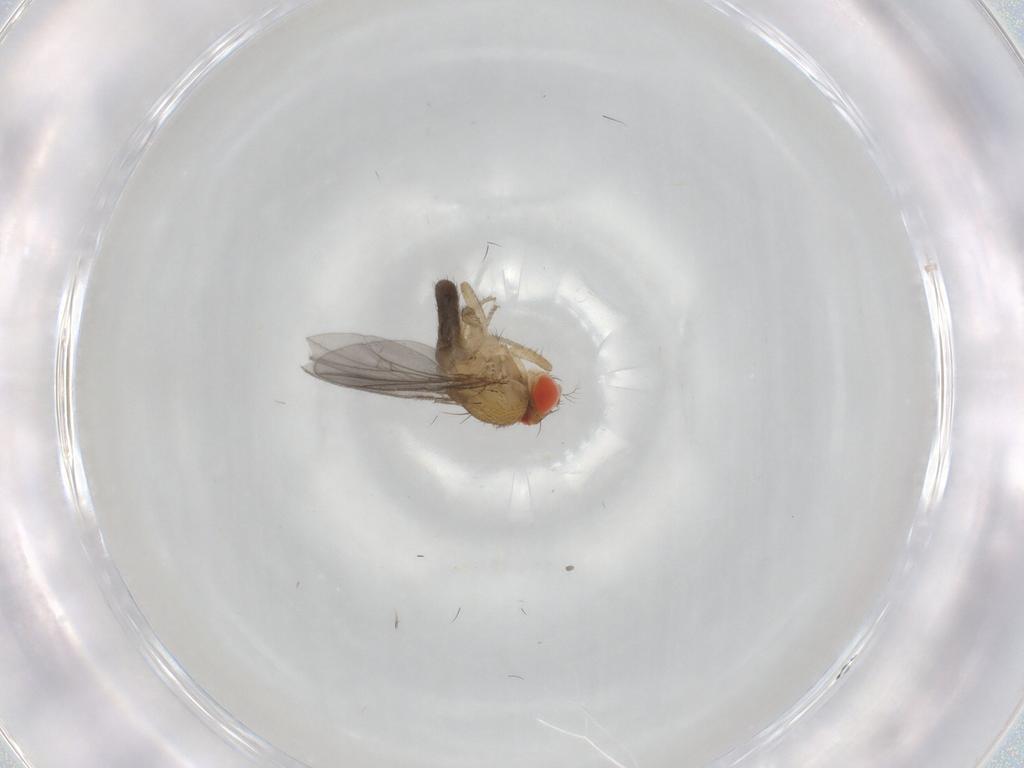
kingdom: Animalia
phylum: Arthropoda
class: Insecta
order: Diptera
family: Drosophilidae
